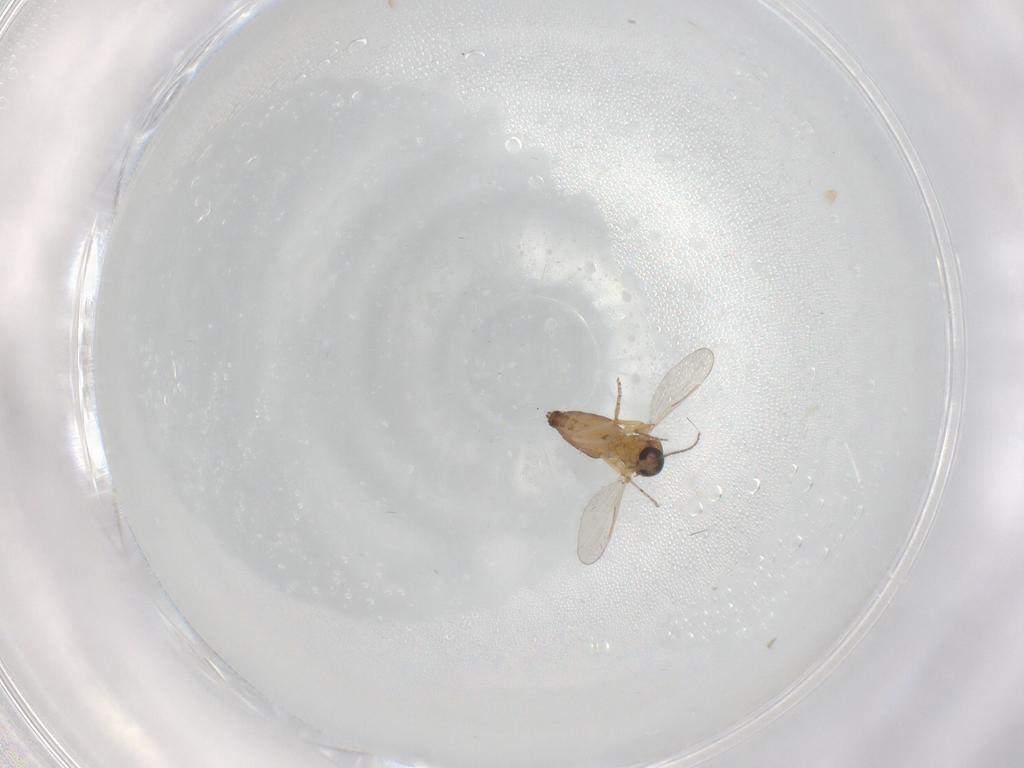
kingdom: Animalia
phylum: Arthropoda
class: Insecta
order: Diptera
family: Ceratopogonidae
